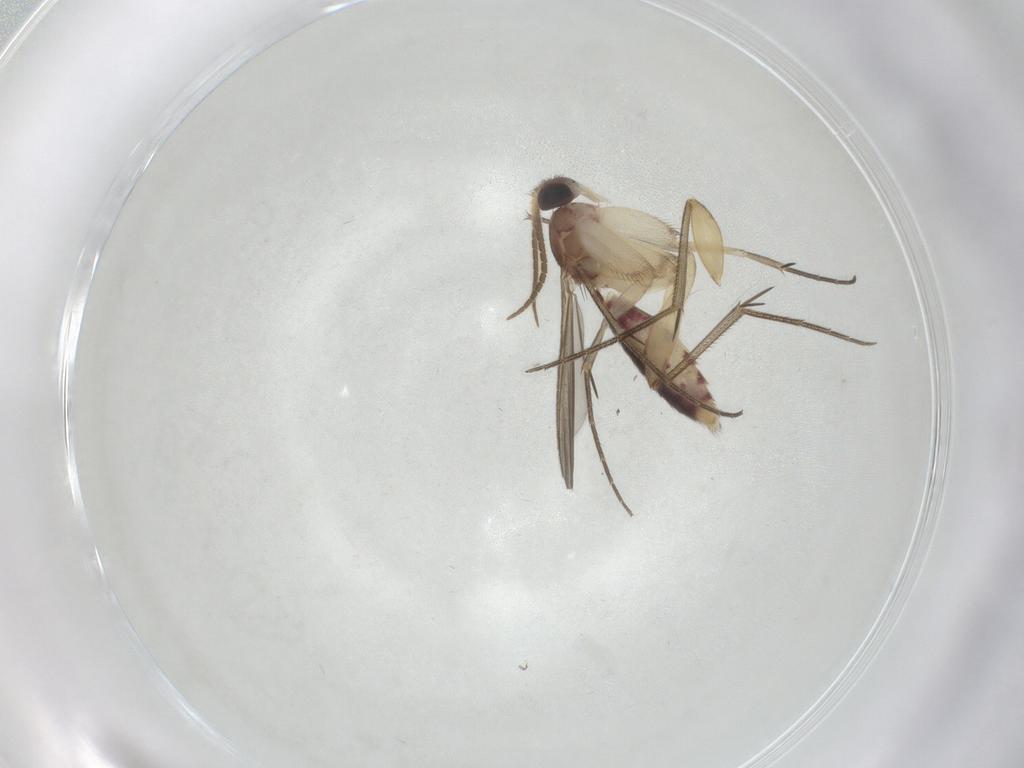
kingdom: Animalia
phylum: Arthropoda
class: Insecta
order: Diptera
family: Mycetophilidae
